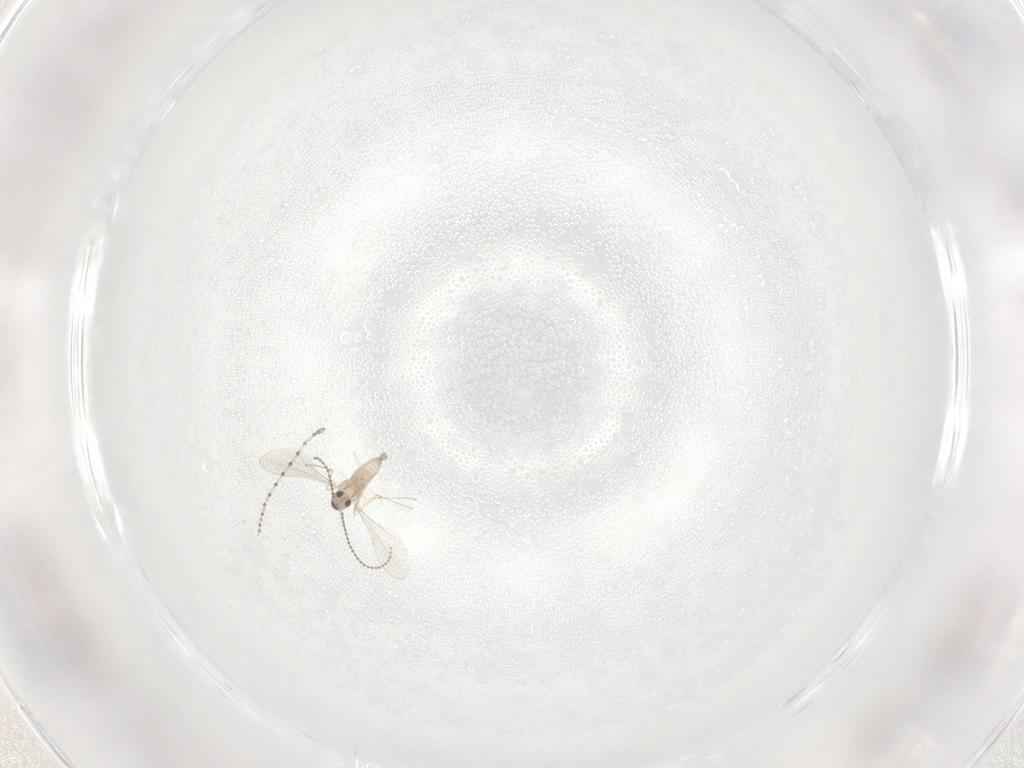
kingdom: Animalia
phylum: Arthropoda
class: Insecta
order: Diptera
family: Cecidomyiidae
